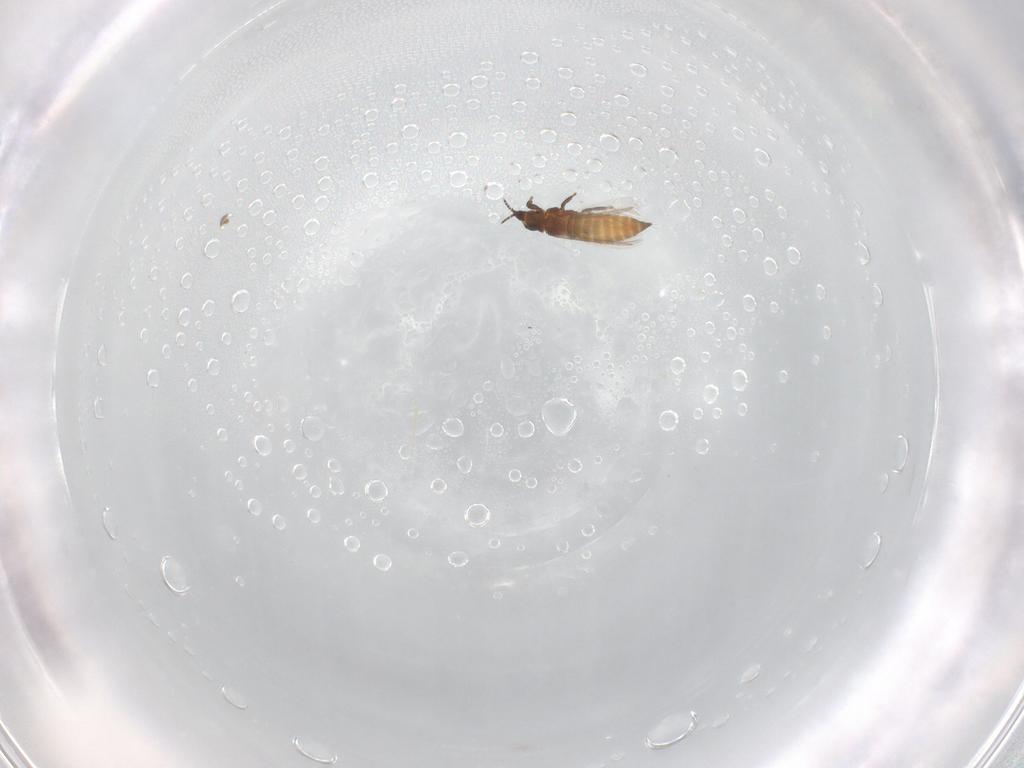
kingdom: Animalia
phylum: Arthropoda
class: Insecta
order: Thysanoptera
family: Thripidae
